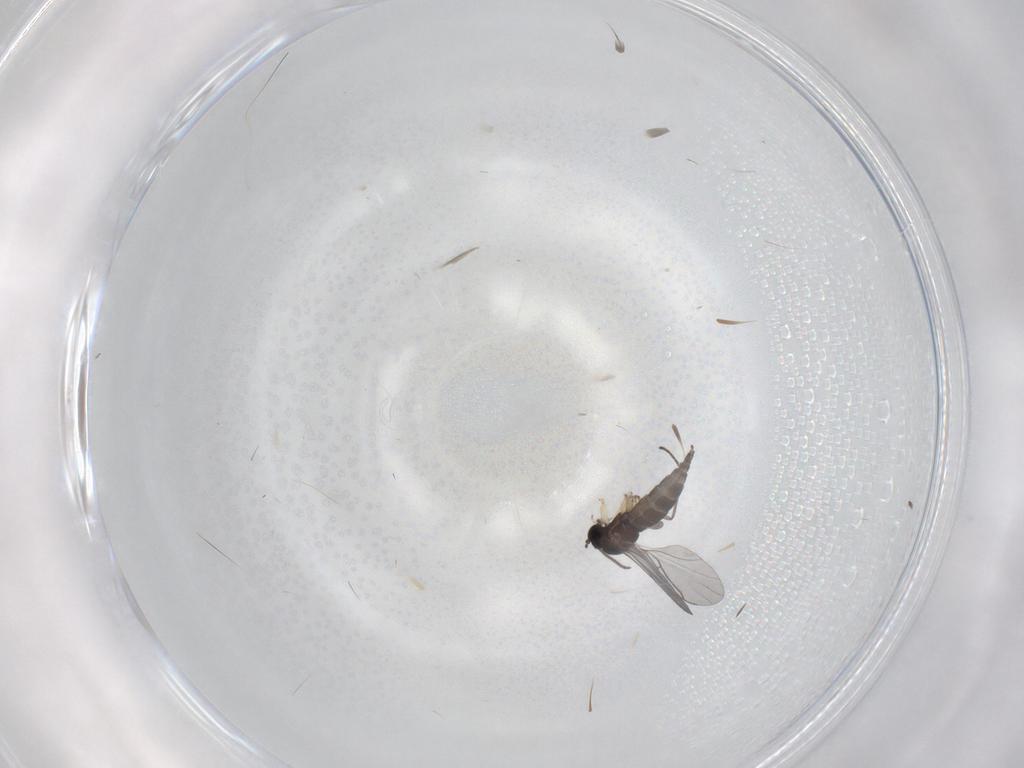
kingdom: Animalia
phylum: Arthropoda
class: Insecta
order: Diptera
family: Sciaridae
